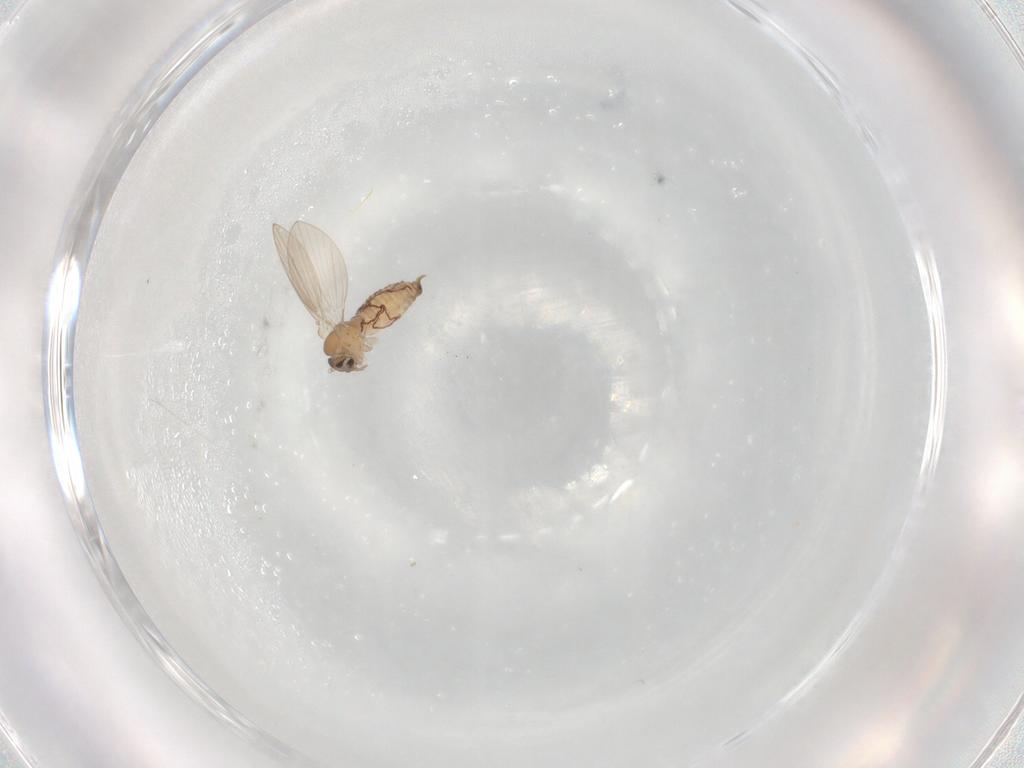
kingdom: Animalia
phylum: Arthropoda
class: Insecta
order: Diptera
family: Psychodidae
